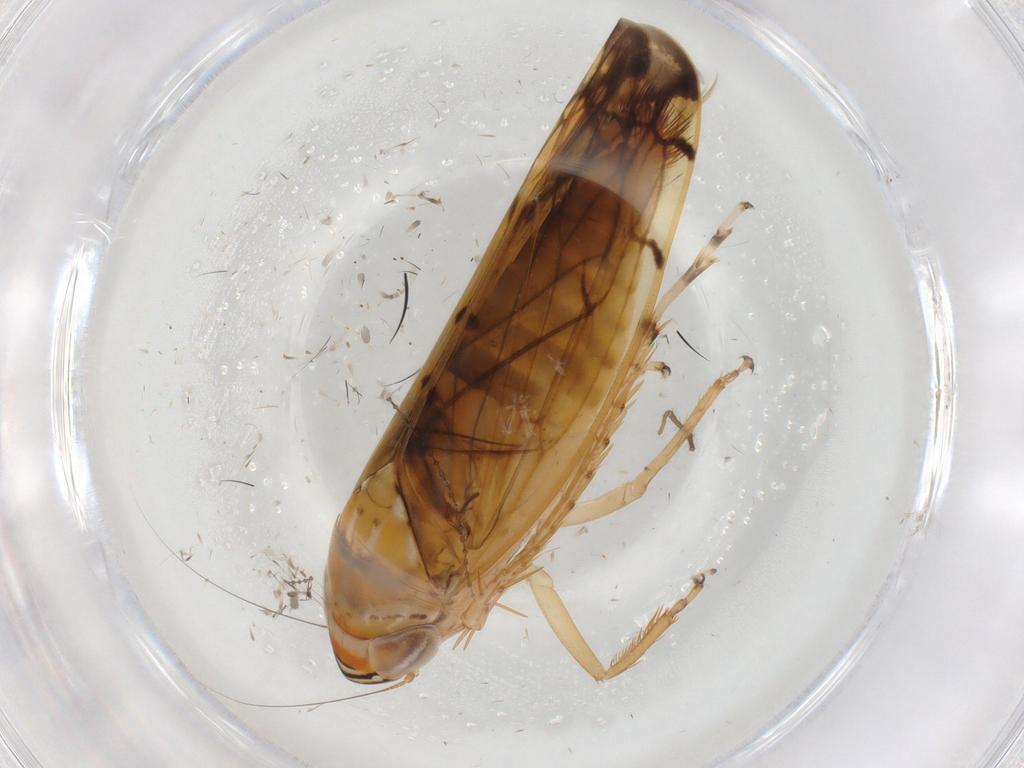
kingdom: Animalia
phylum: Arthropoda
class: Insecta
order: Hemiptera
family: Cicadellidae
